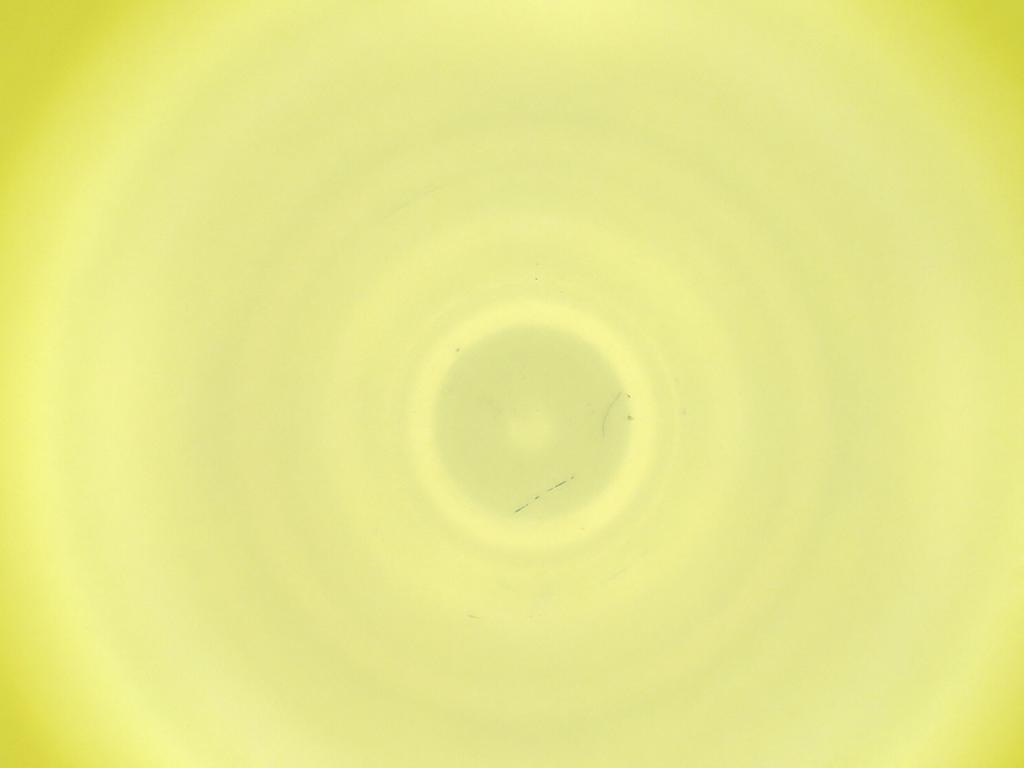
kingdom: Animalia
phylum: Arthropoda
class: Insecta
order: Diptera
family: Cecidomyiidae
